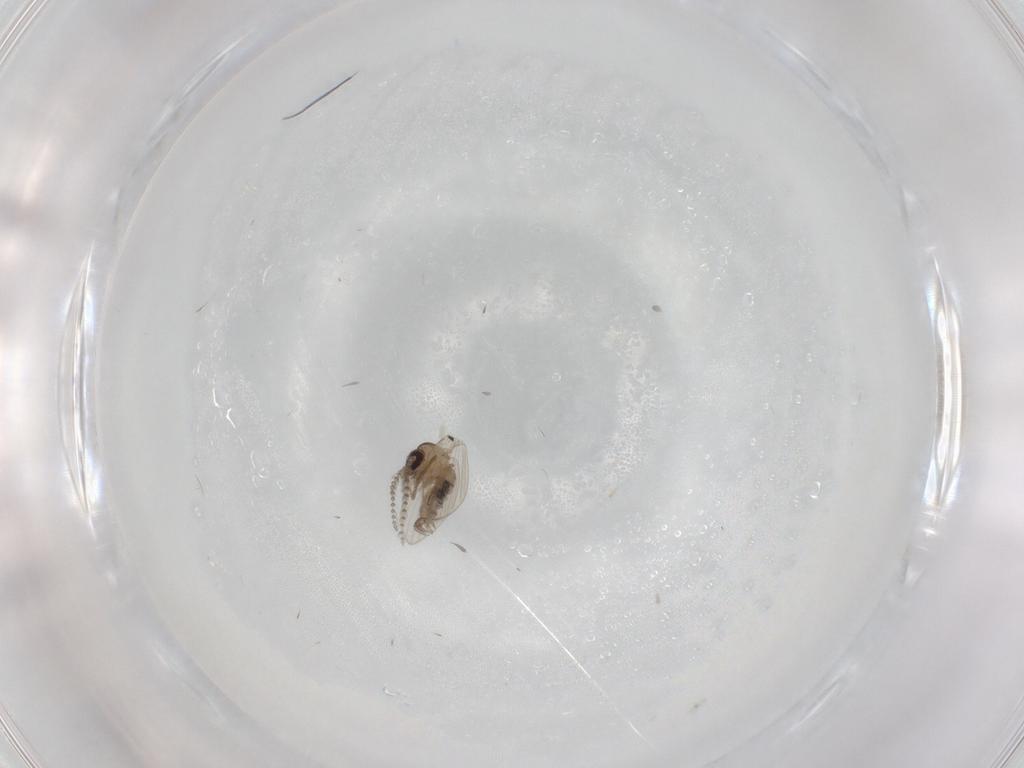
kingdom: Animalia
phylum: Arthropoda
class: Insecta
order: Diptera
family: Psychodidae
